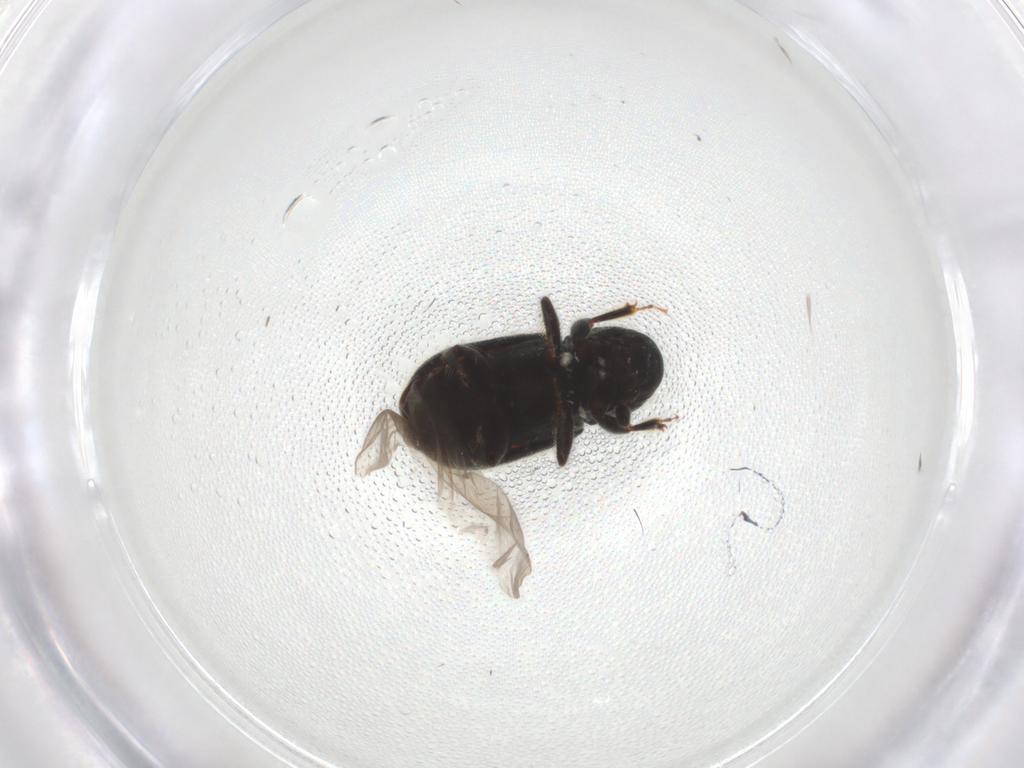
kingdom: Animalia
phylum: Arthropoda
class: Insecta
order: Coleoptera
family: Curculionidae
